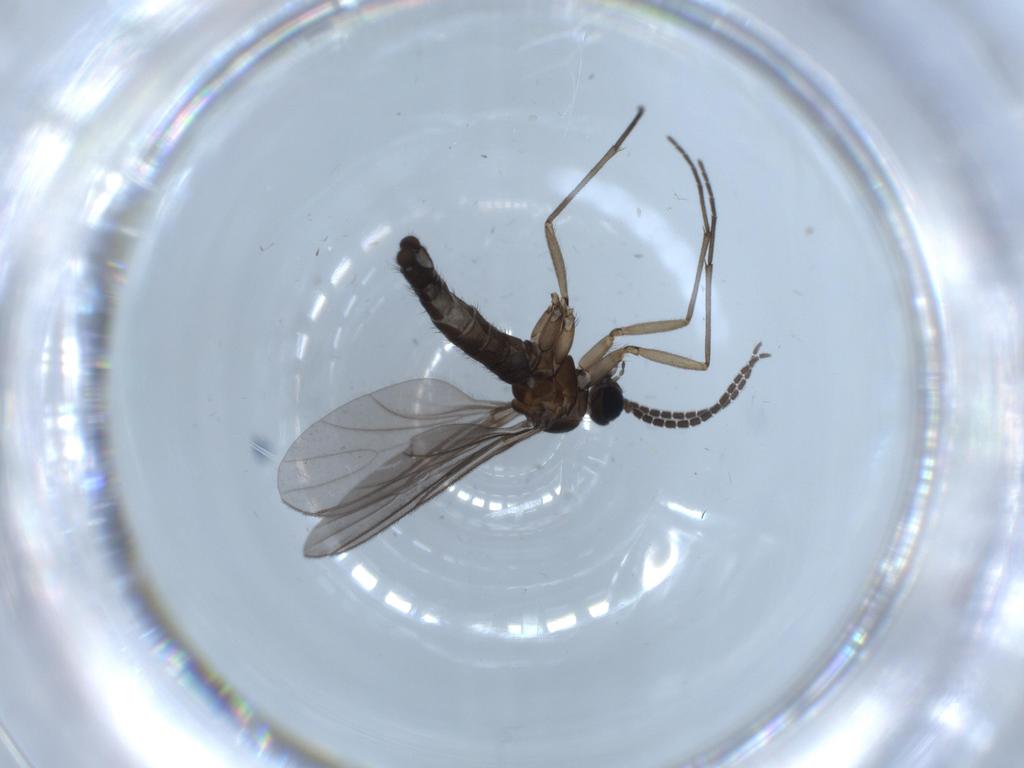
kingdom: Animalia
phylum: Arthropoda
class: Insecta
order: Diptera
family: Sciaridae
